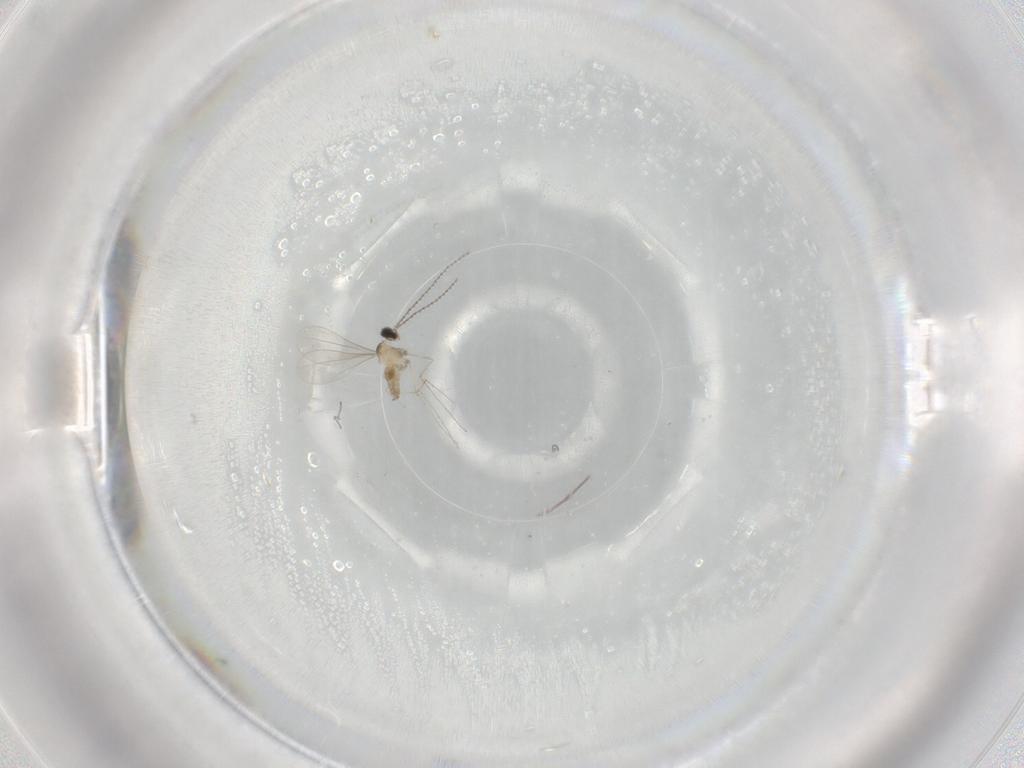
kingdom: Animalia
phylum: Arthropoda
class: Insecta
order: Diptera
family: Cecidomyiidae
